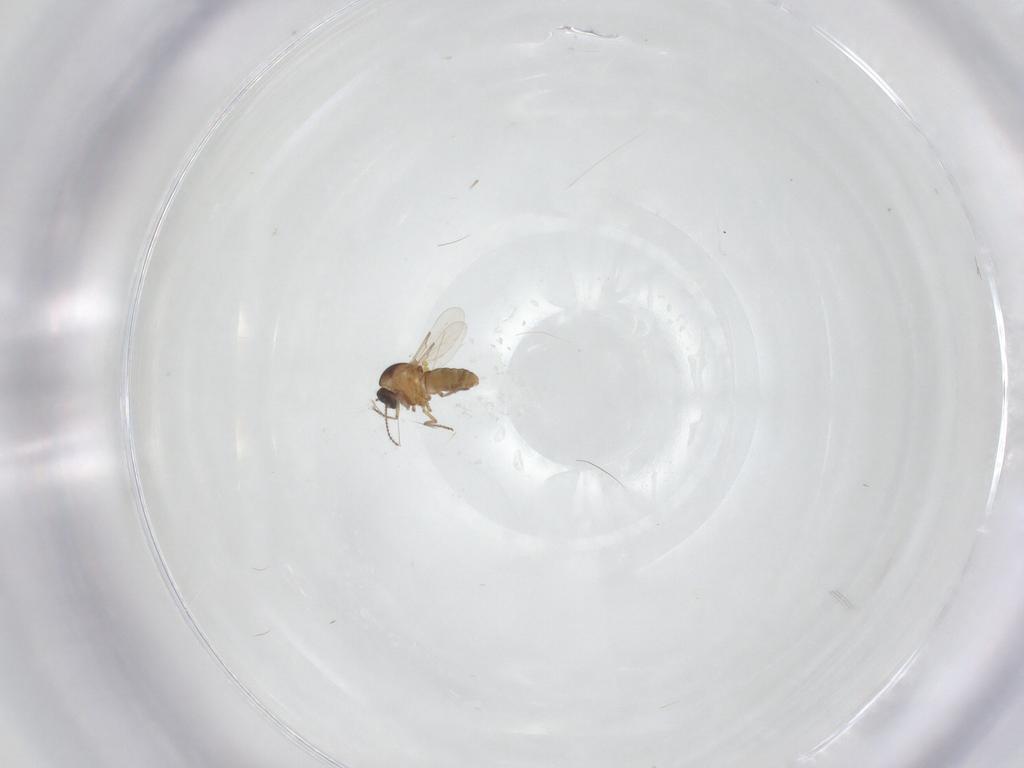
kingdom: Animalia
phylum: Arthropoda
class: Insecta
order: Diptera
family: Ceratopogonidae
